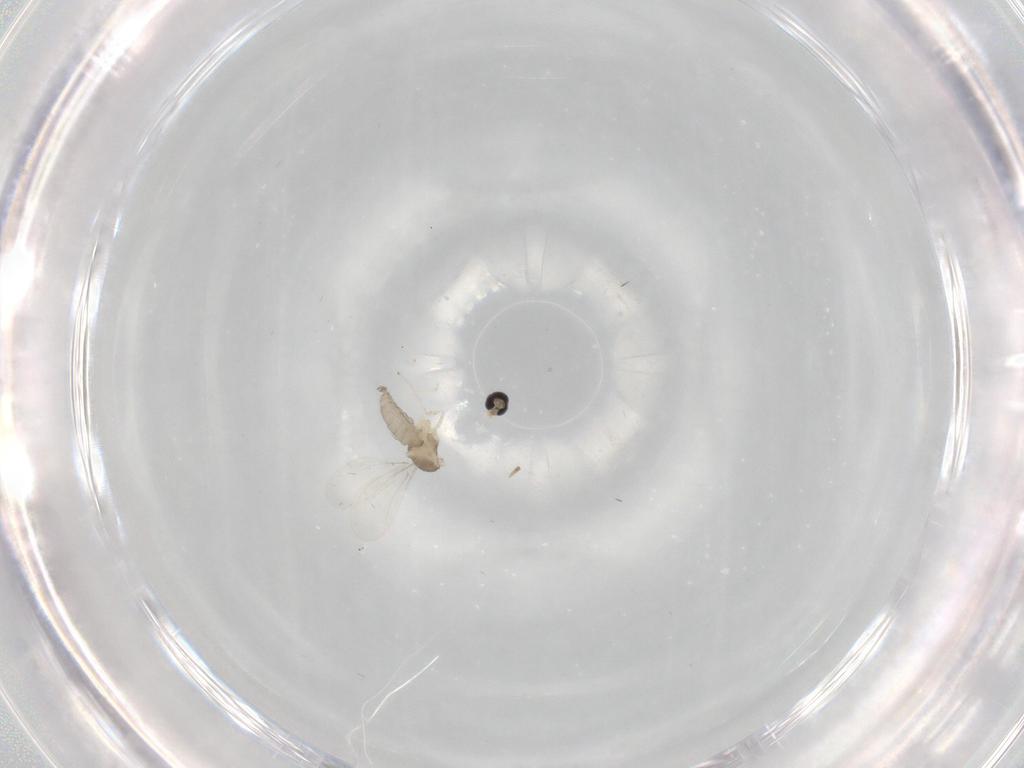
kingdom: Animalia
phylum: Arthropoda
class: Insecta
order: Diptera
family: Cecidomyiidae
